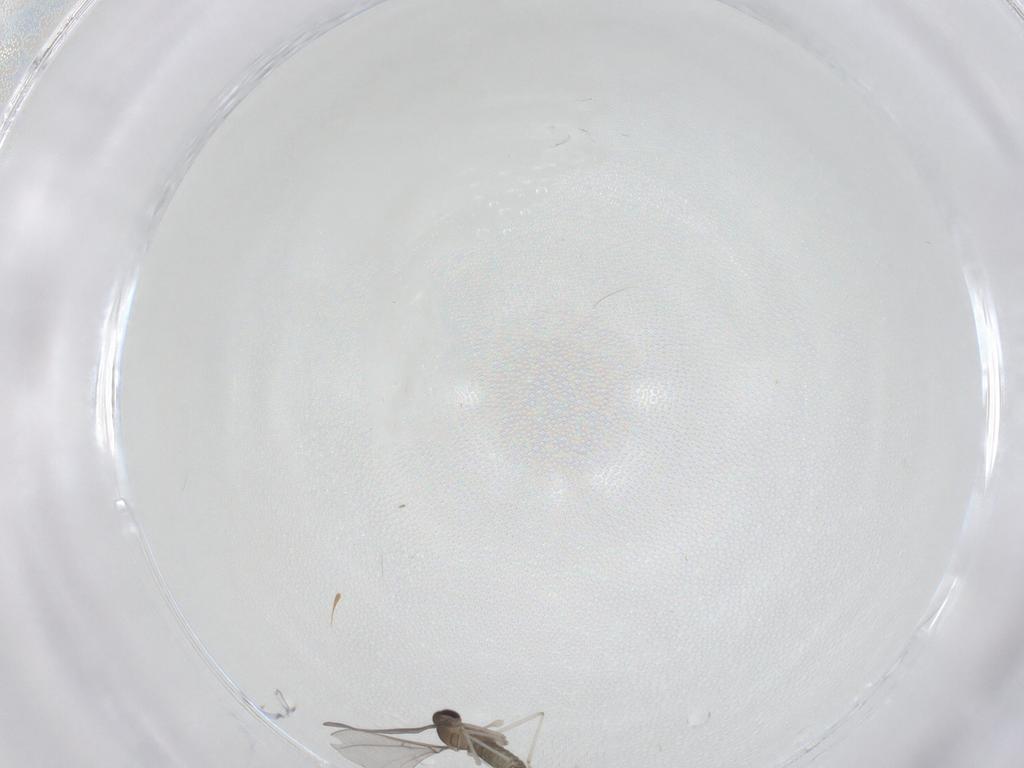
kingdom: Animalia
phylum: Arthropoda
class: Insecta
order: Diptera
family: Cecidomyiidae
